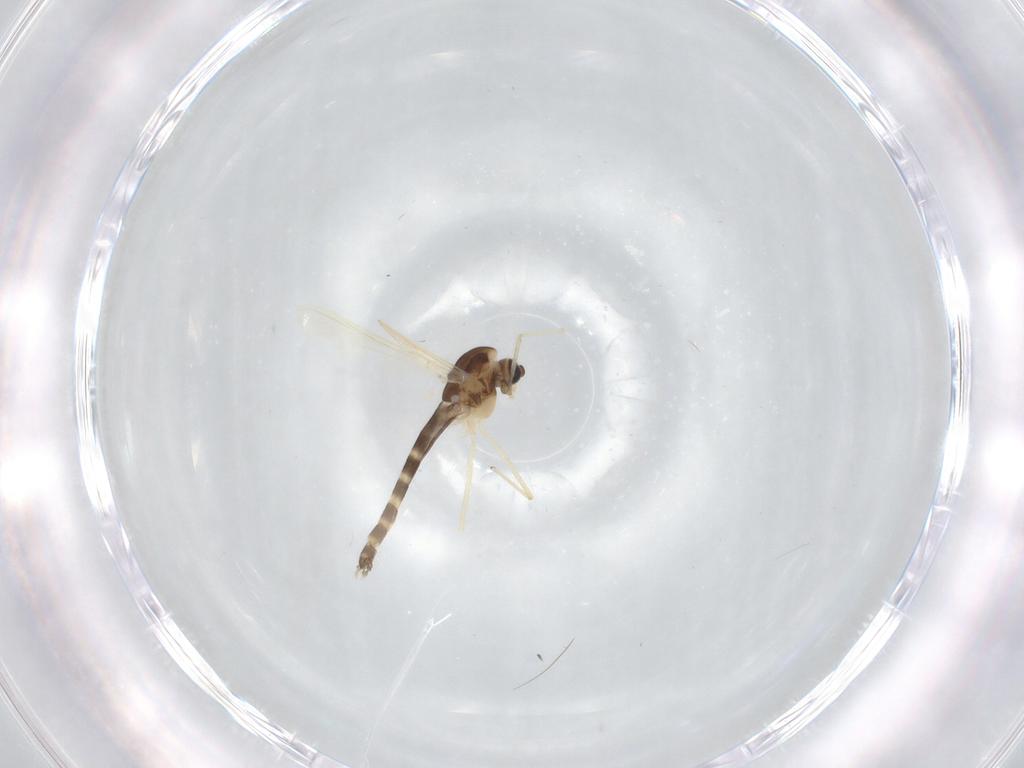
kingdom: Animalia
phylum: Arthropoda
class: Insecta
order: Diptera
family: Chironomidae
